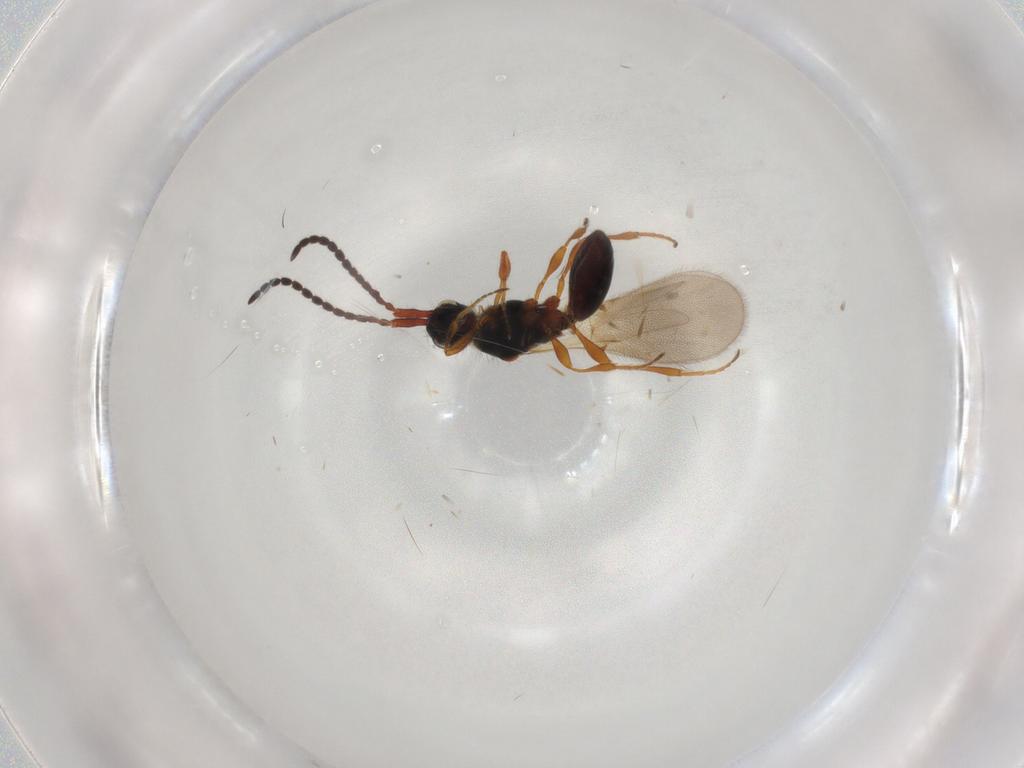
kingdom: Animalia
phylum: Arthropoda
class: Insecta
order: Hymenoptera
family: Diapriidae
